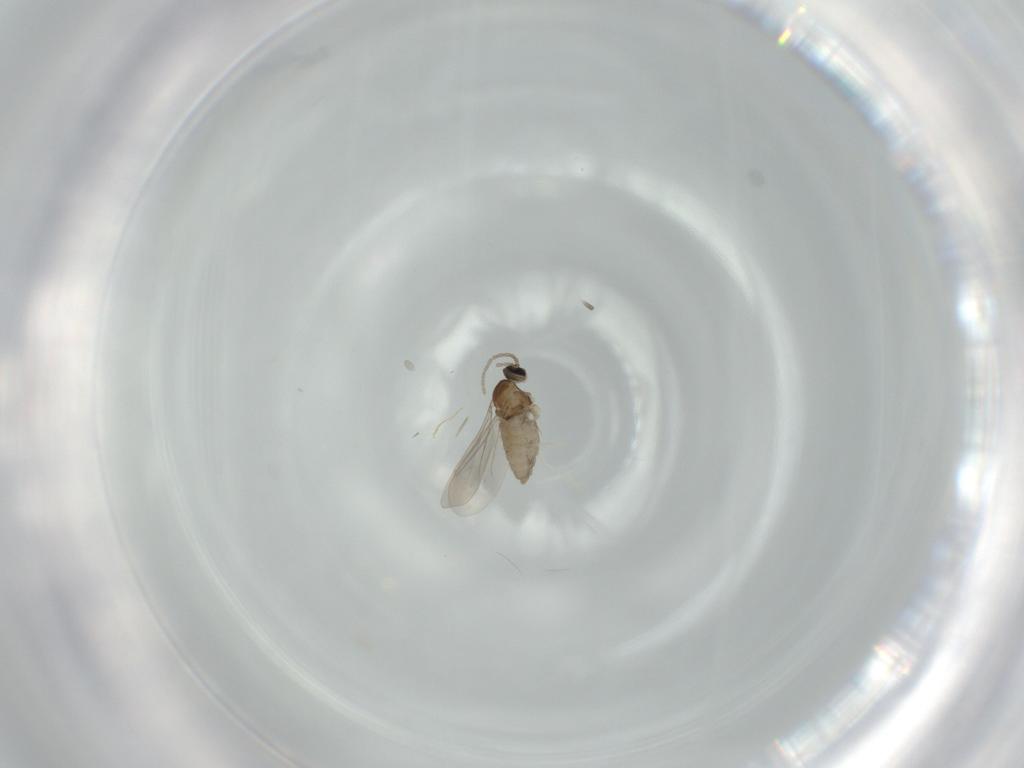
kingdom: Animalia
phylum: Arthropoda
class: Insecta
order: Diptera
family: Cecidomyiidae
